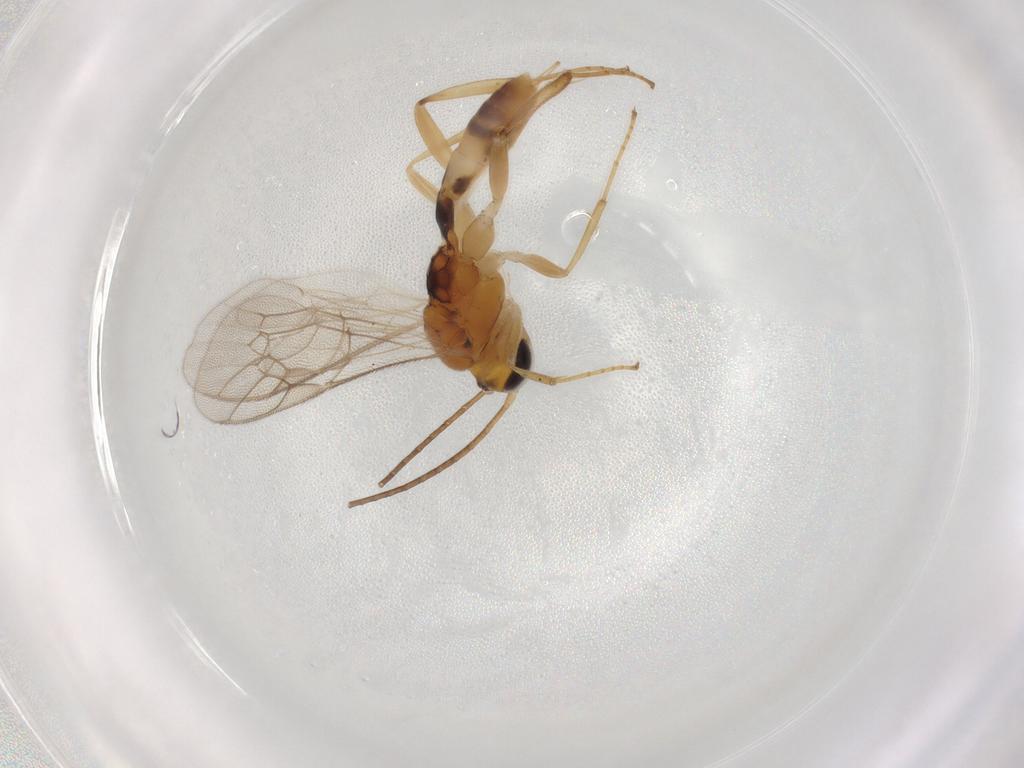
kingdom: Animalia
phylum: Arthropoda
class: Insecta
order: Hymenoptera
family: Ichneumonidae
